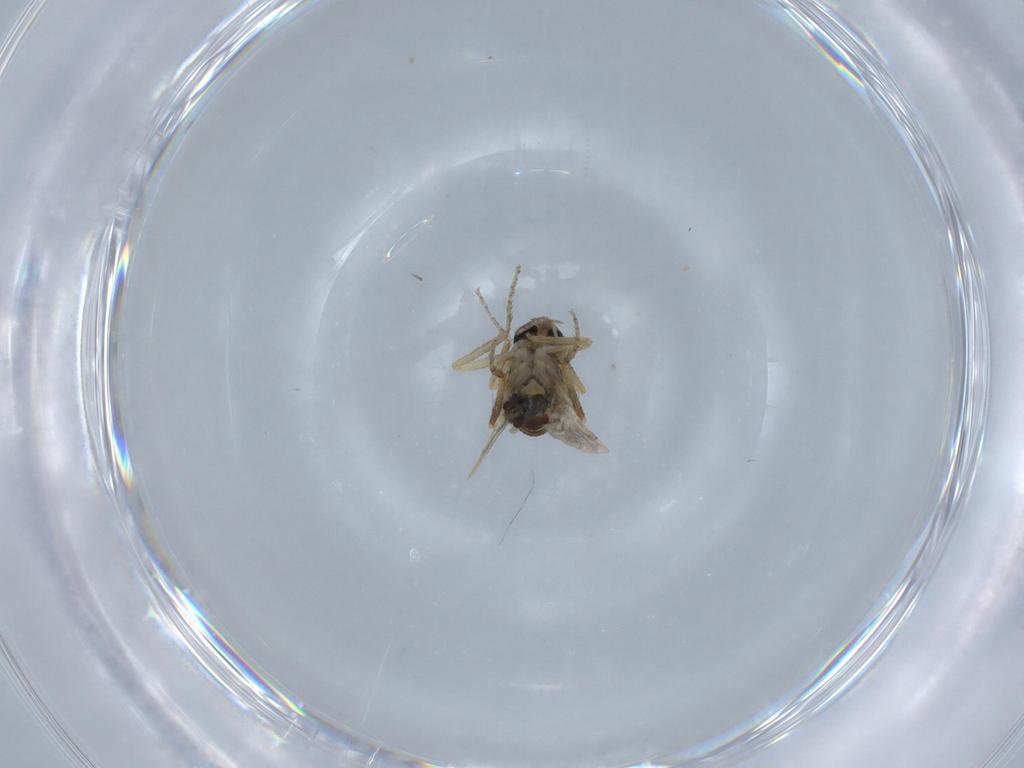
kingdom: Animalia
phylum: Arthropoda
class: Insecta
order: Diptera
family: Ceratopogonidae
